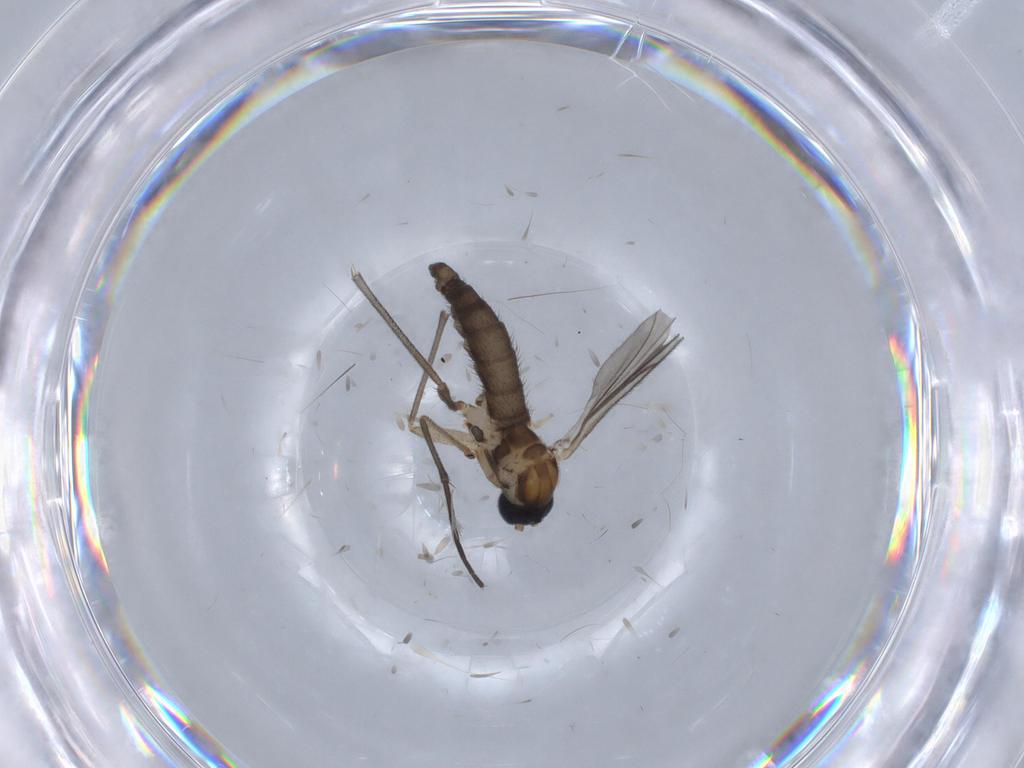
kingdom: Animalia
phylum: Arthropoda
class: Insecta
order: Diptera
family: Sciaridae
